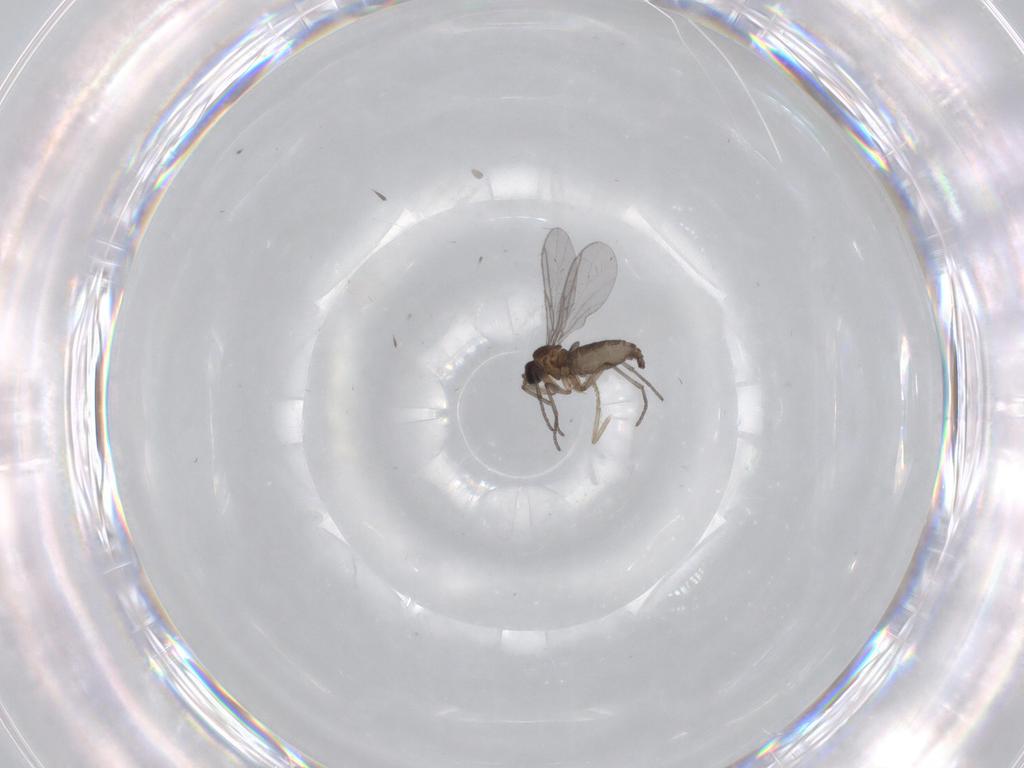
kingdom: Animalia
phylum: Arthropoda
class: Insecta
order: Diptera
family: Psychodidae
